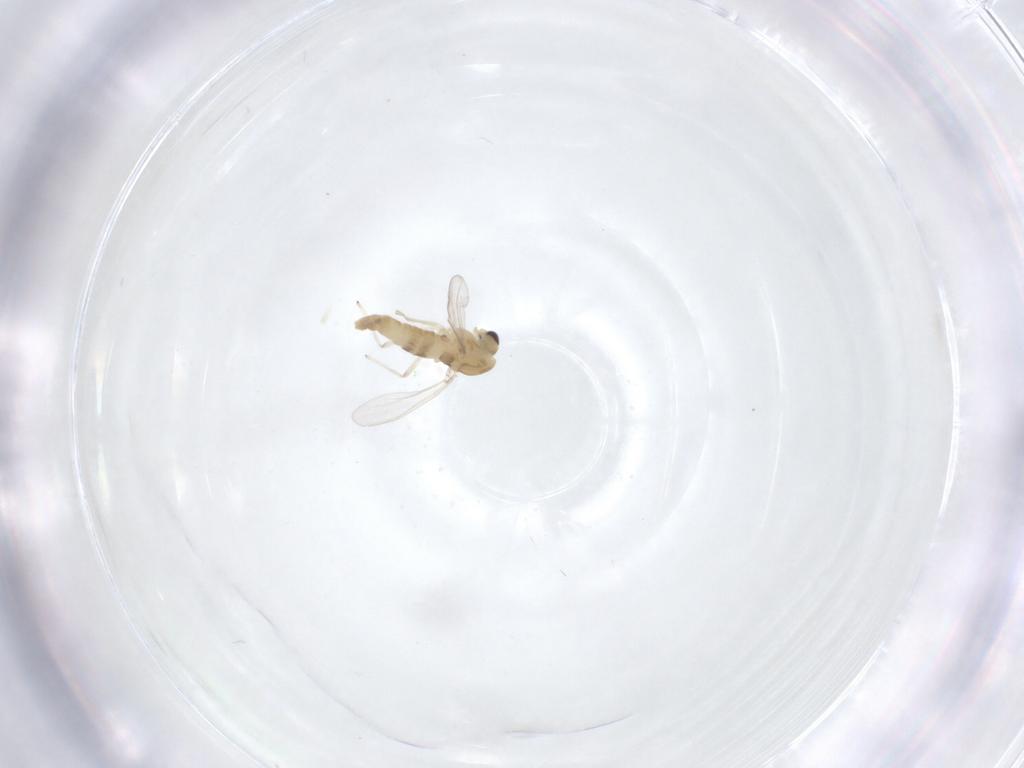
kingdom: Animalia
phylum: Arthropoda
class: Insecta
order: Diptera
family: Chironomidae
